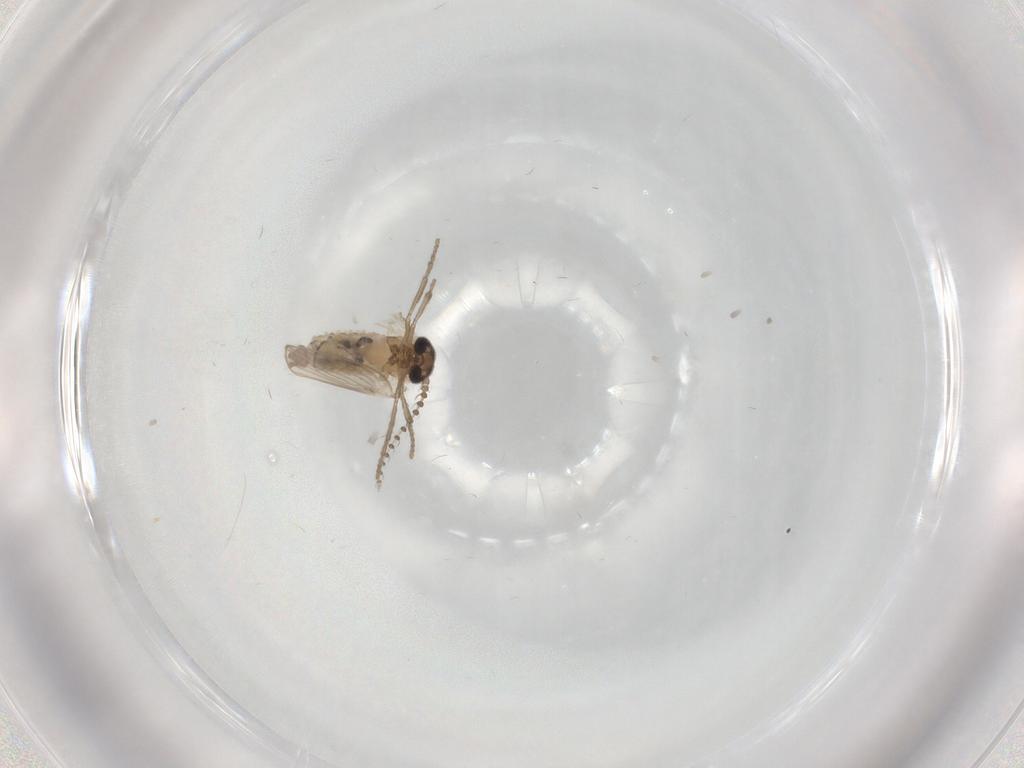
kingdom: Animalia
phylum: Arthropoda
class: Insecta
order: Diptera
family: Psychodidae
